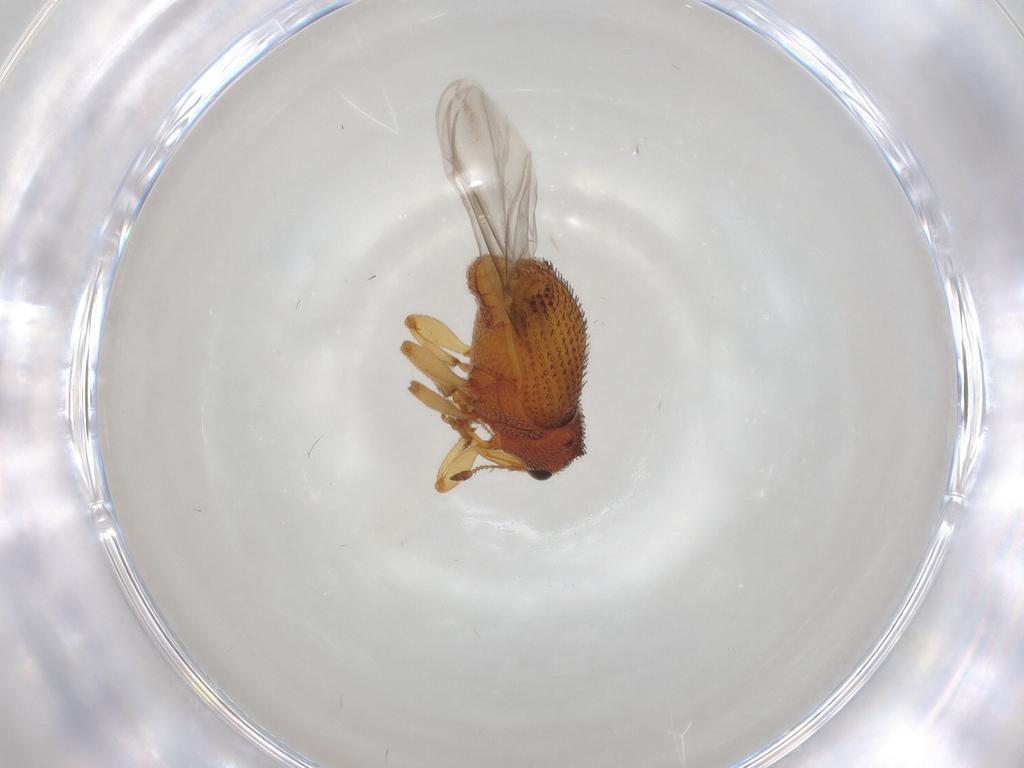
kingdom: Animalia
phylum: Arthropoda
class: Insecta
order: Coleoptera
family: Curculionidae
